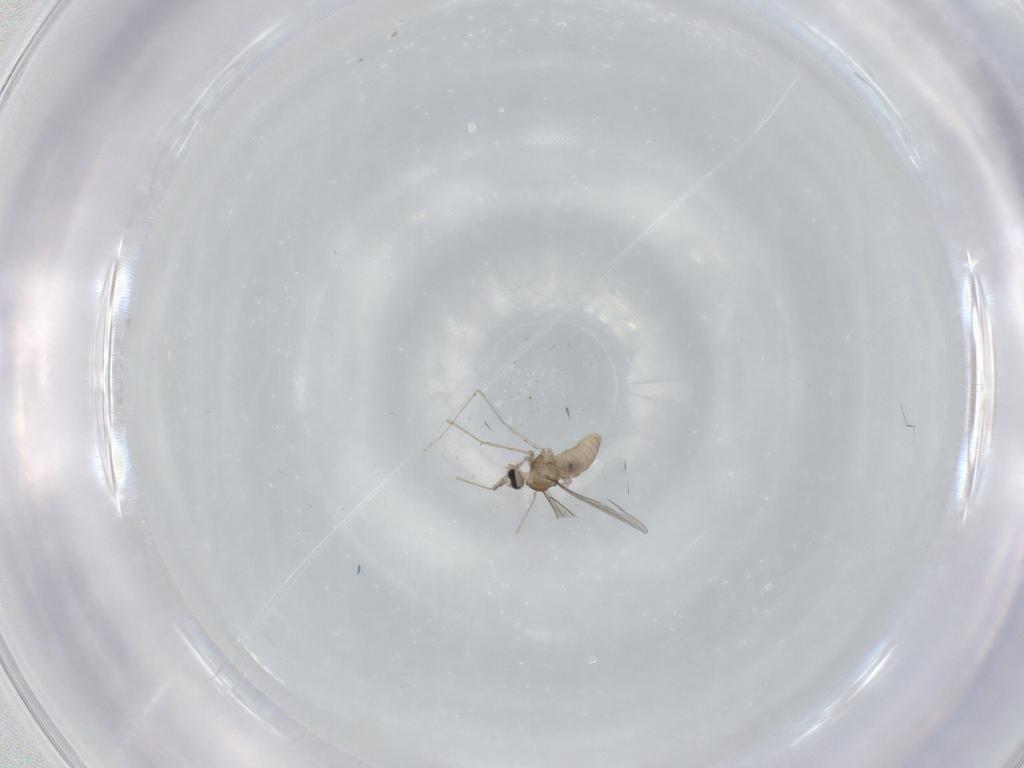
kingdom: Animalia
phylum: Arthropoda
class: Insecta
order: Diptera
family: Cecidomyiidae
